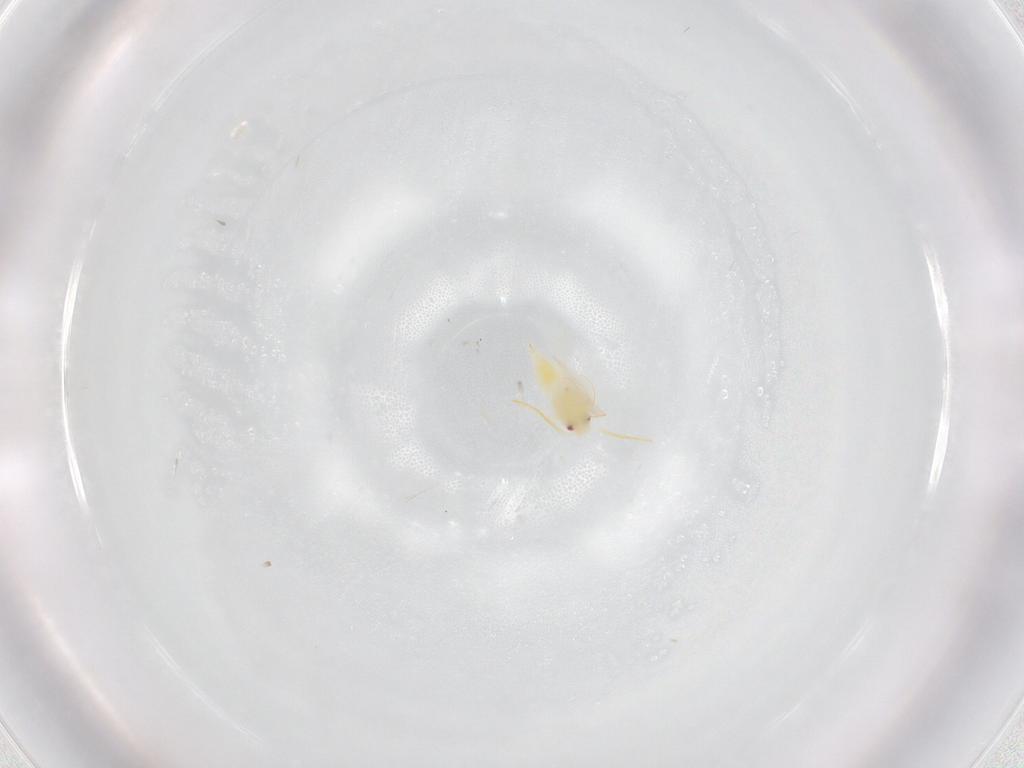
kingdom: Animalia
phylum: Arthropoda
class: Insecta
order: Hemiptera
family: Aleyrodidae
